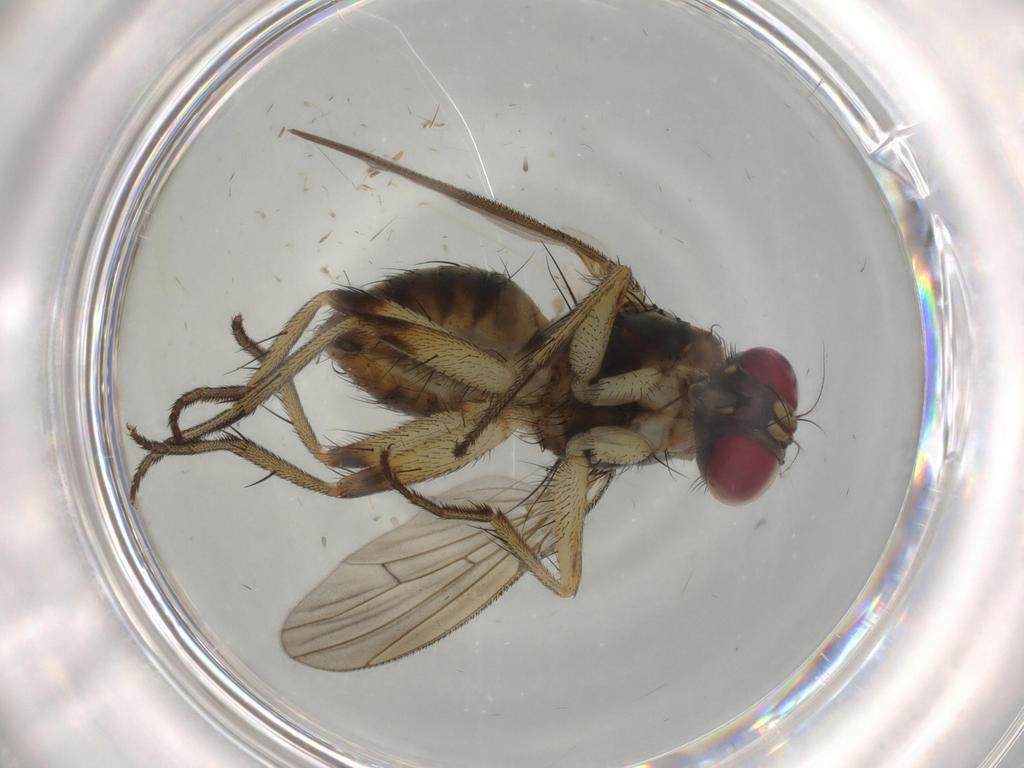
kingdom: Animalia
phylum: Arthropoda
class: Insecta
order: Diptera
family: Muscidae
